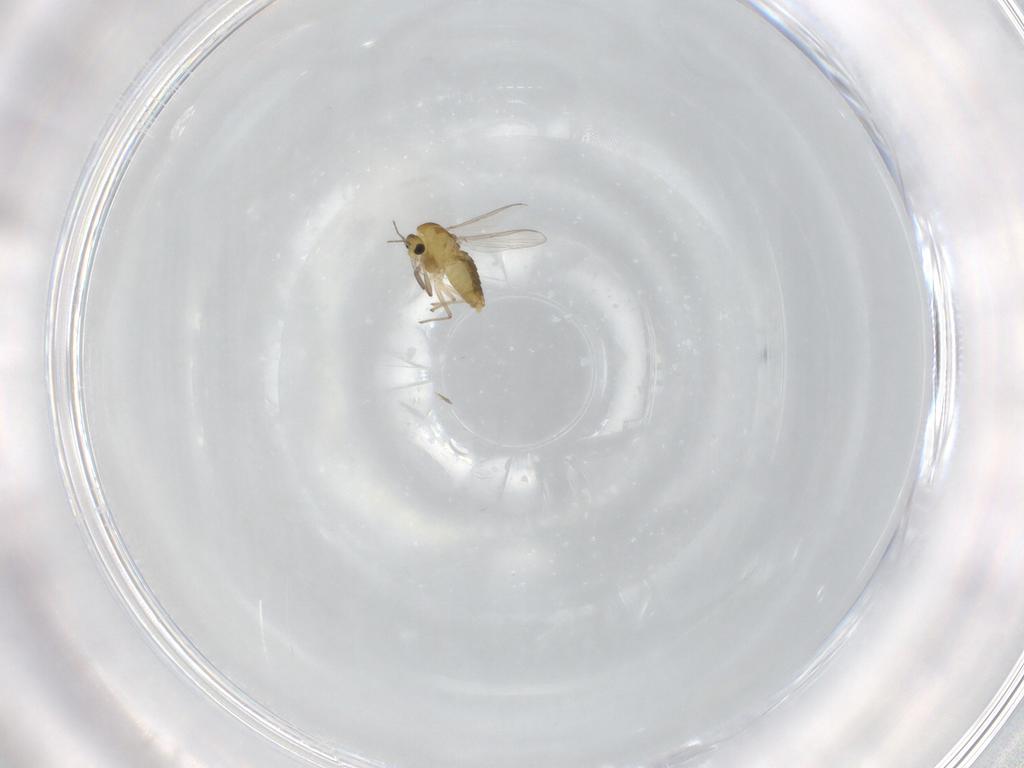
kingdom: Animalia
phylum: Arthropoda
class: Insecta
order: Diptera
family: Chironomidae
